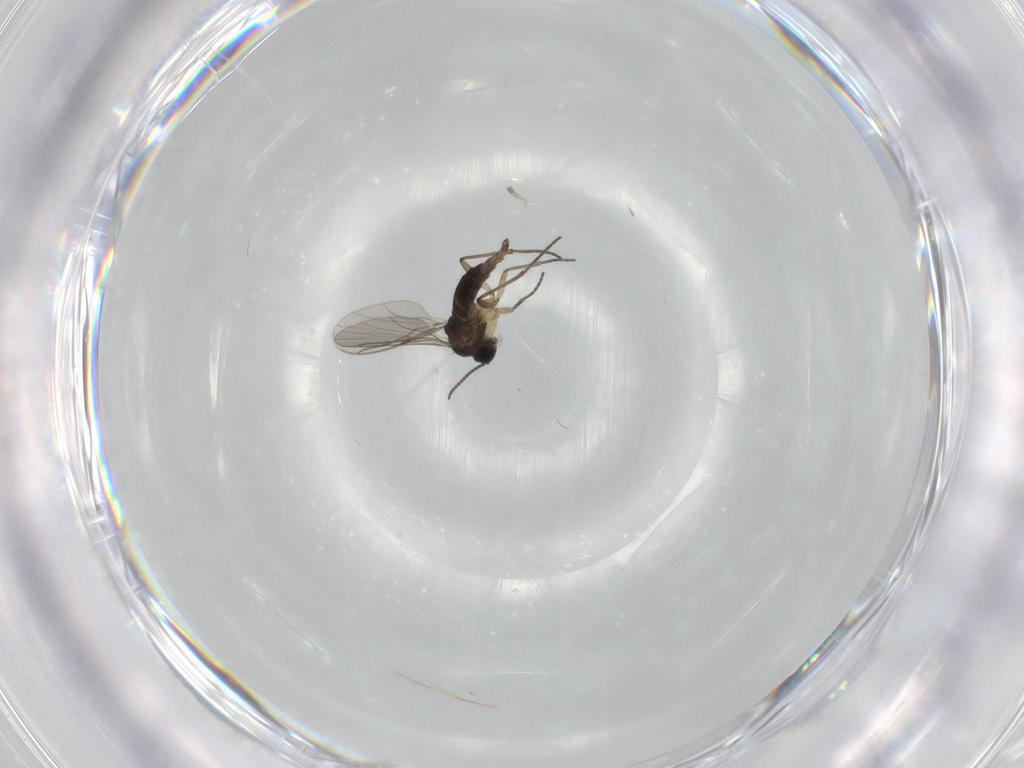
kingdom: Animalia
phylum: Arthropoda
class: Insecta
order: Diptera
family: Sciaridae
